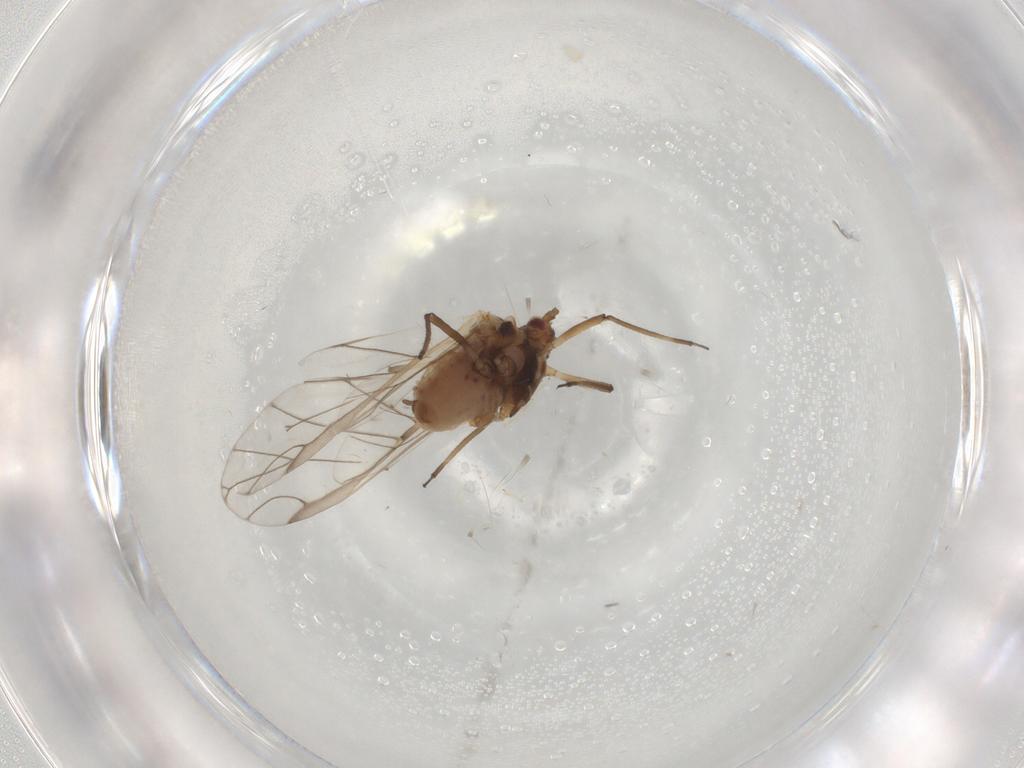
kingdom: Animalia
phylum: Arthropoda
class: Insecta
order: Hemiptera
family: Aphididae
